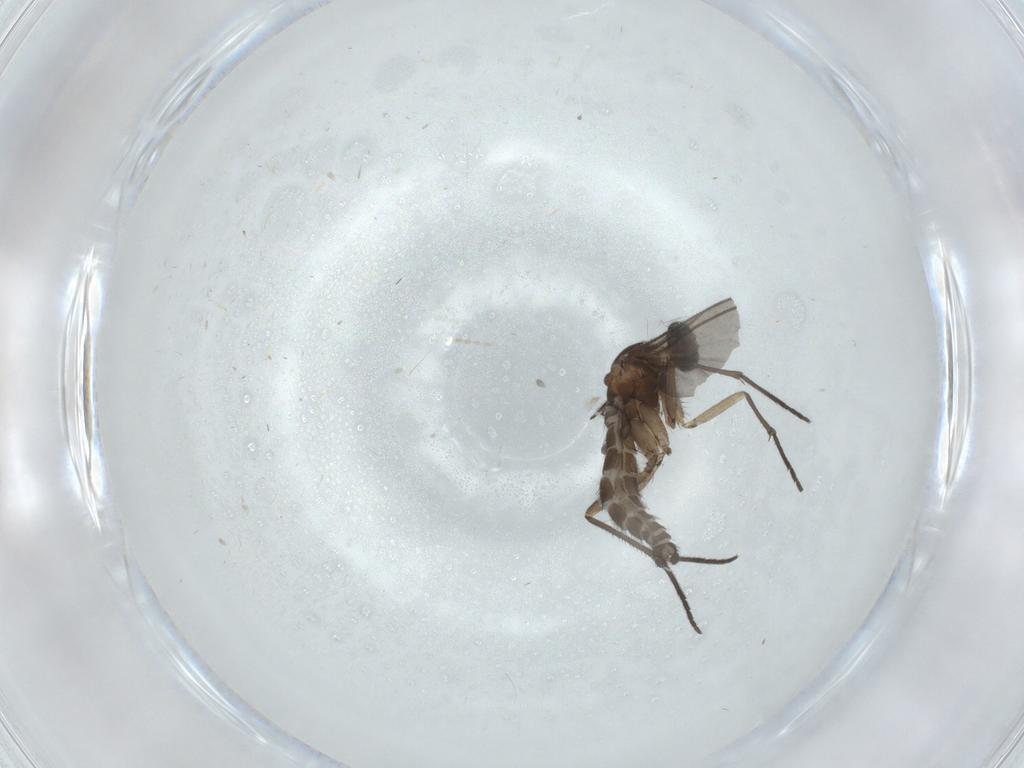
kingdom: Animalia
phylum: Arthropoda
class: Insecta
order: Diptera
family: Sciaridae
